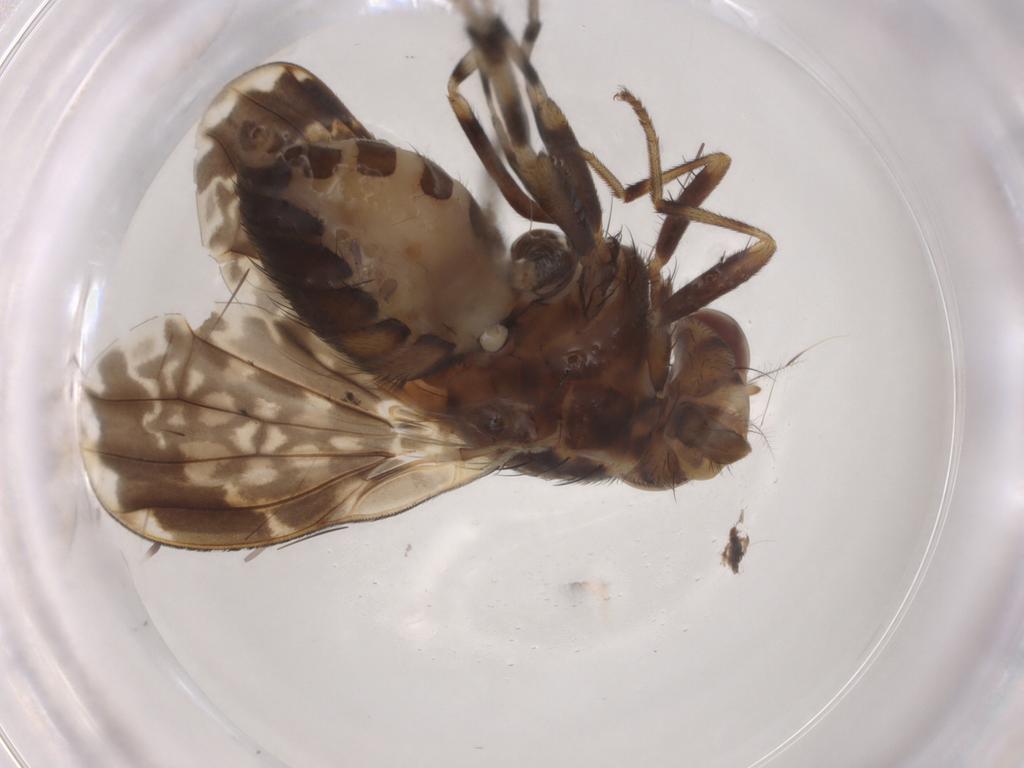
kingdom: Animalia
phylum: Arthropoda
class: Insecta
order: Diptera
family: Lauxaniidae
